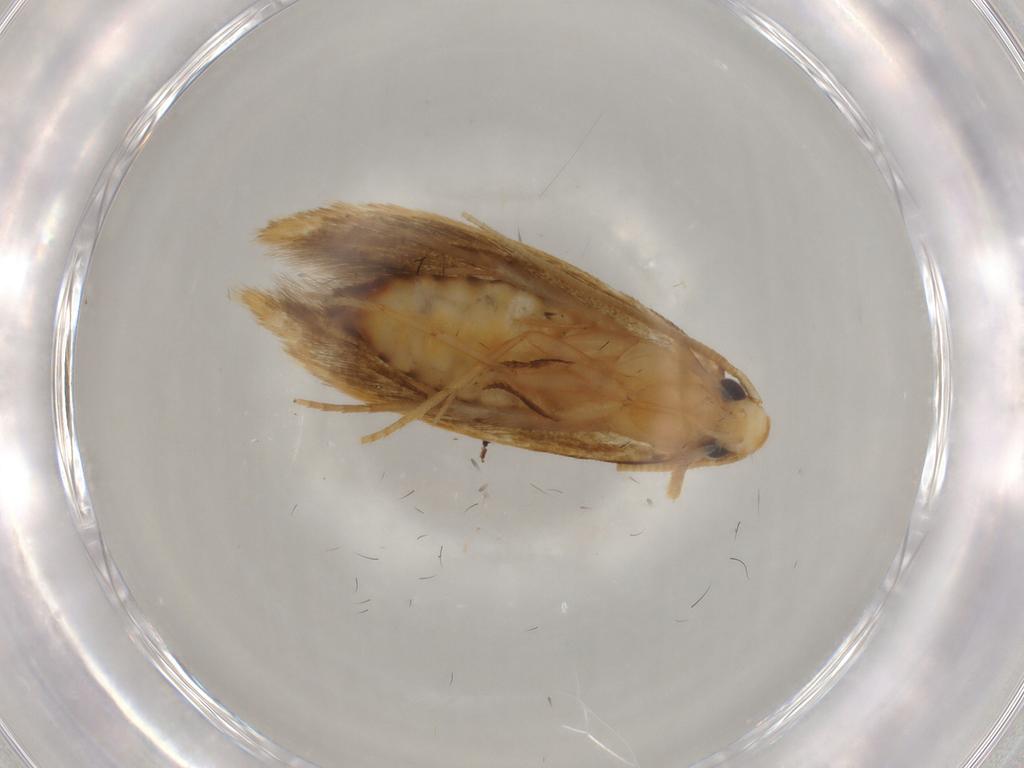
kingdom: Animalia
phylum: Arthropoda
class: Insecta
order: Lepidoptera
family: Tineidae
